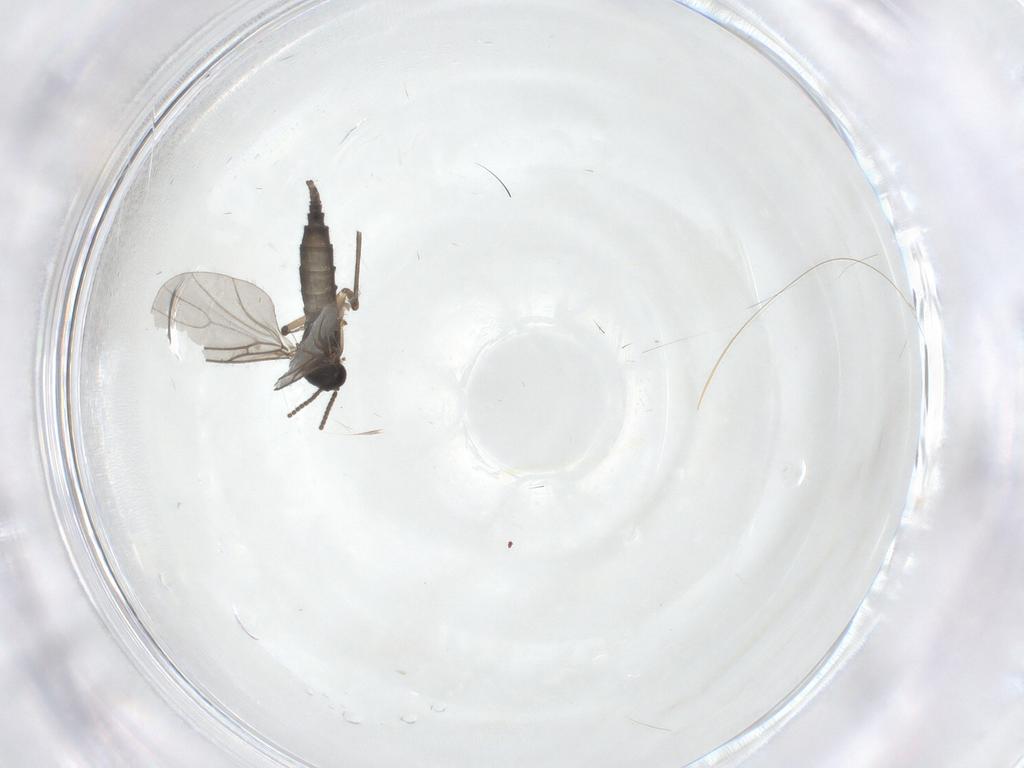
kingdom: Animalia
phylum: Arthropoda
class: Insecta
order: Diptera
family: Sciaridae
